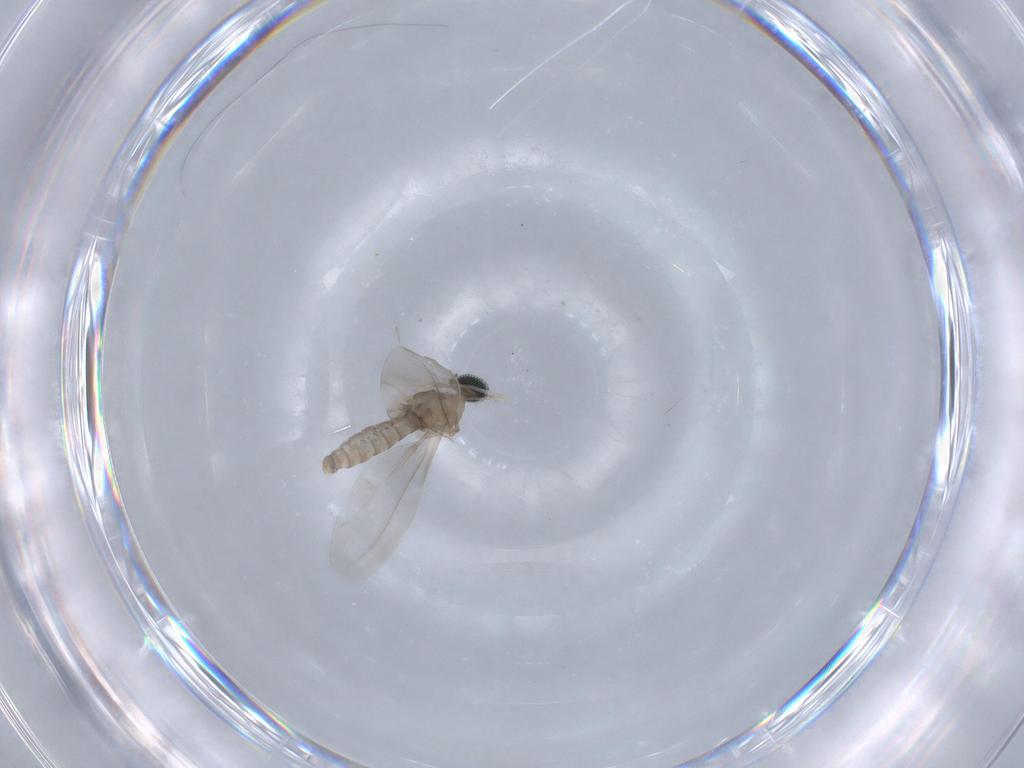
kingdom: Animalia
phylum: Arthropoda
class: Insecta
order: Diptera
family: Cecidomyiidae
